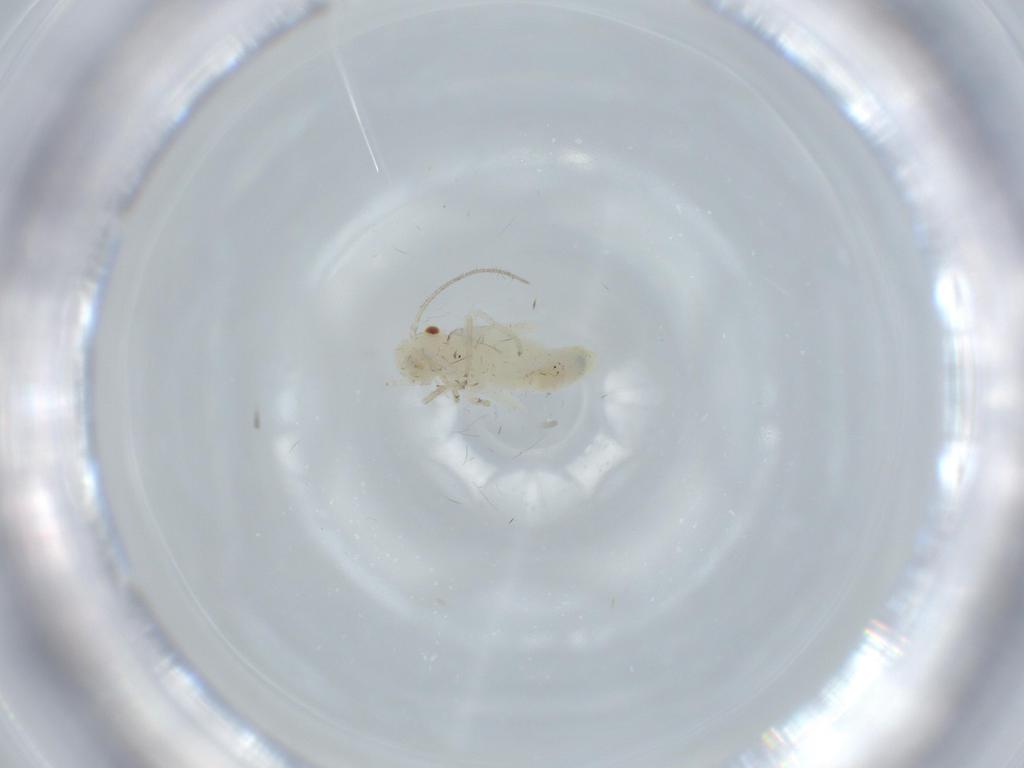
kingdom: Animalia
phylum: Arthropoda
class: Insecta
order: Psocodea
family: Caeciliusidae
